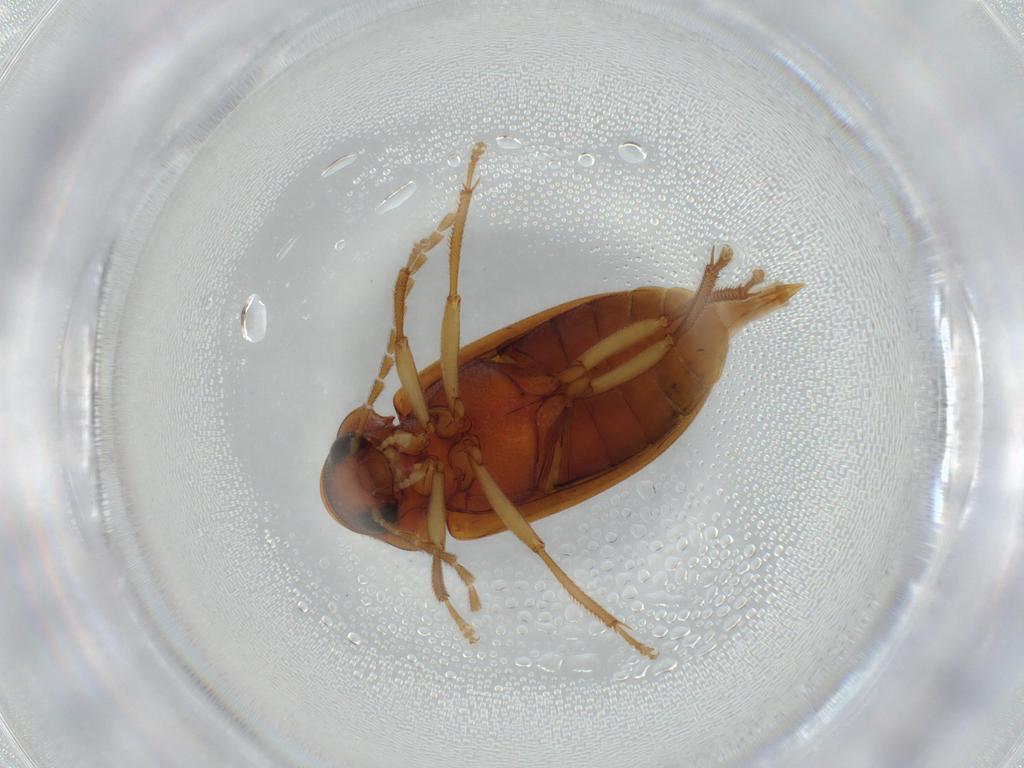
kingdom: Animalia
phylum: Arthropoda
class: Insecta
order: Coleoptera
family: Ptilodactylidae
